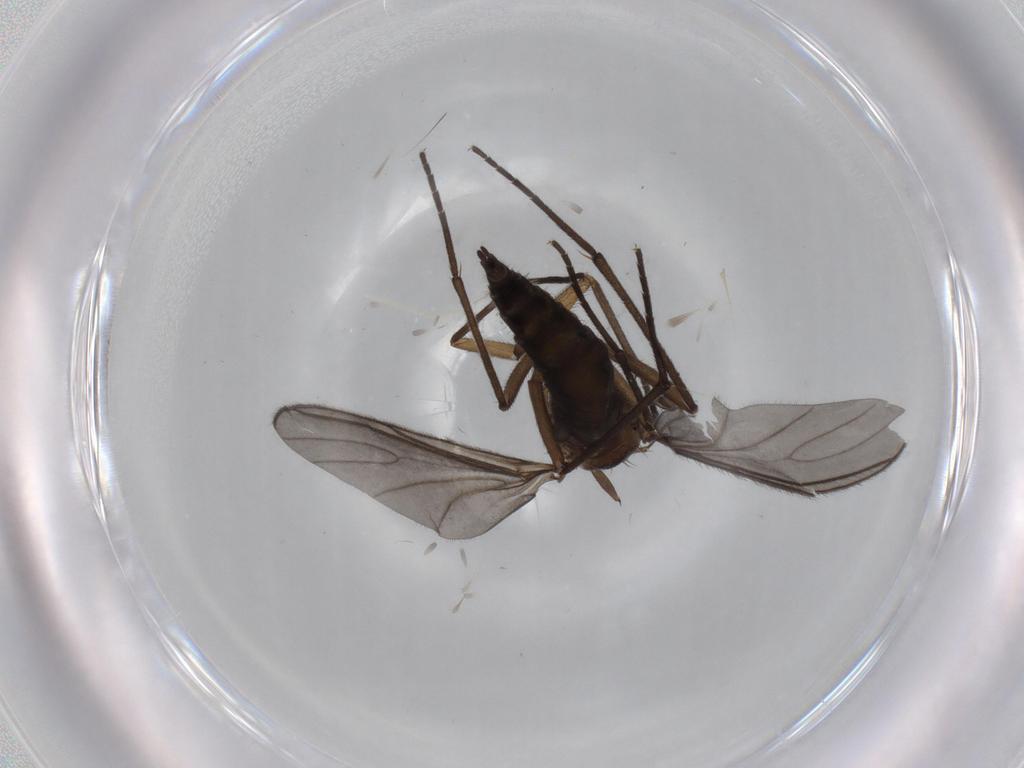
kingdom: Animalia
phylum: Arthropoda
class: Insecta
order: Diptera
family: Sciaridae
